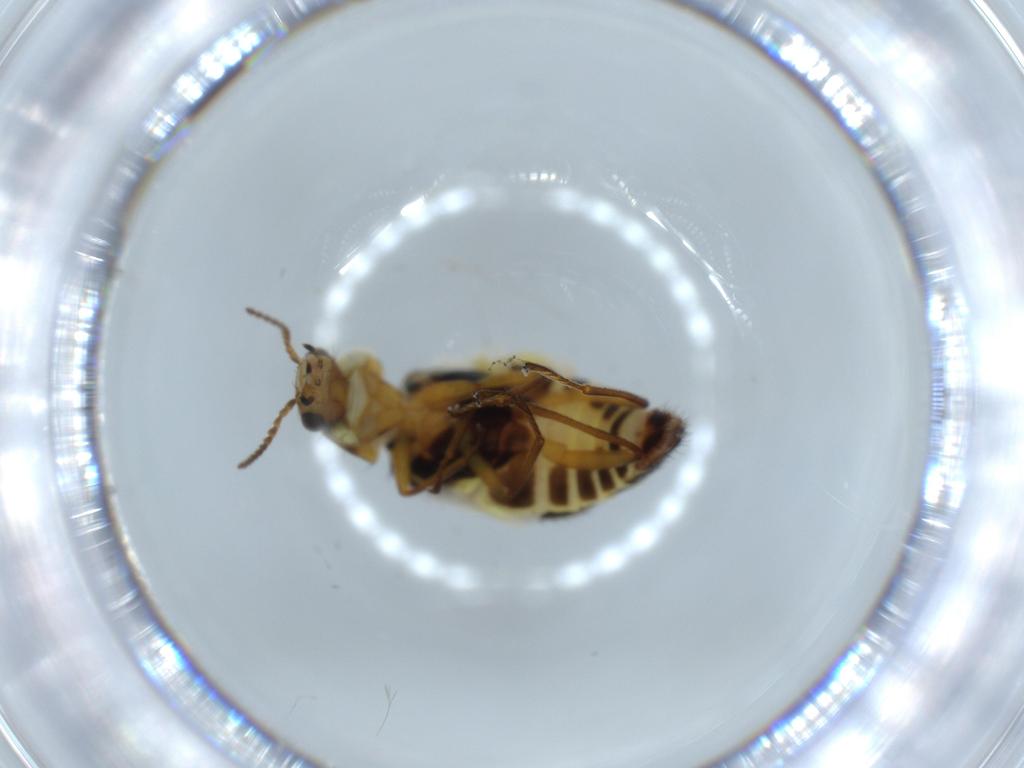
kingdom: Animalia
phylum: Arthropoda
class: Insecta
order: Coleoptera
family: Melyridae
